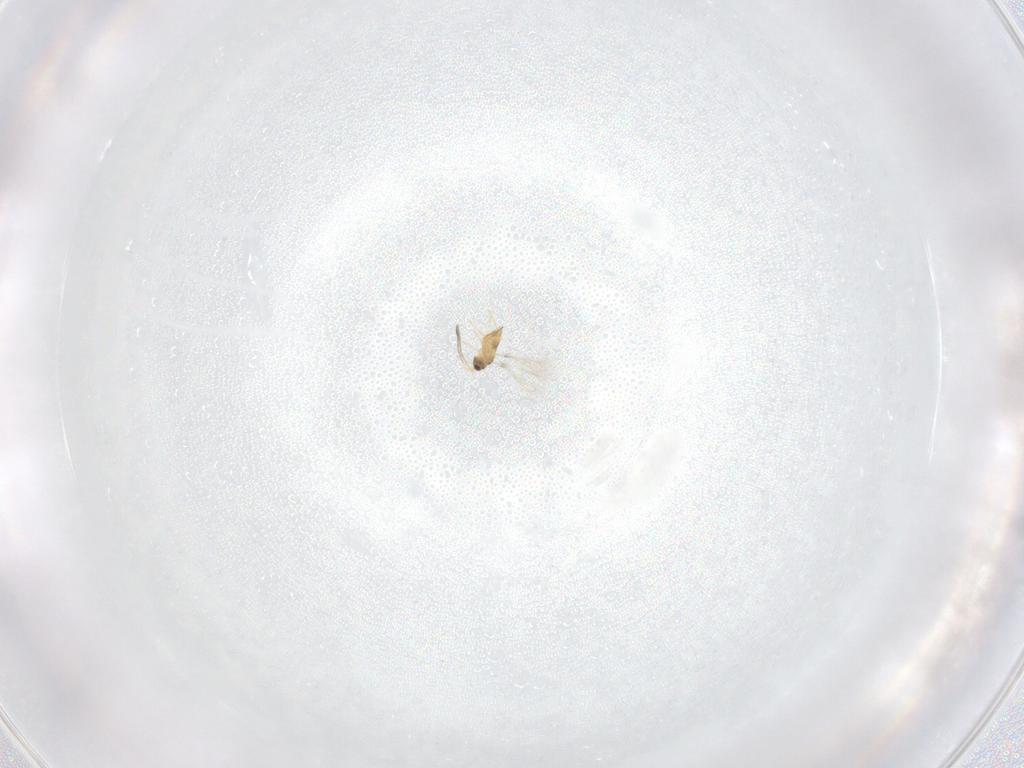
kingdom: Animalia
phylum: Arthropoda
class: Insecta
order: Hymenoptera
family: Mymaridae
